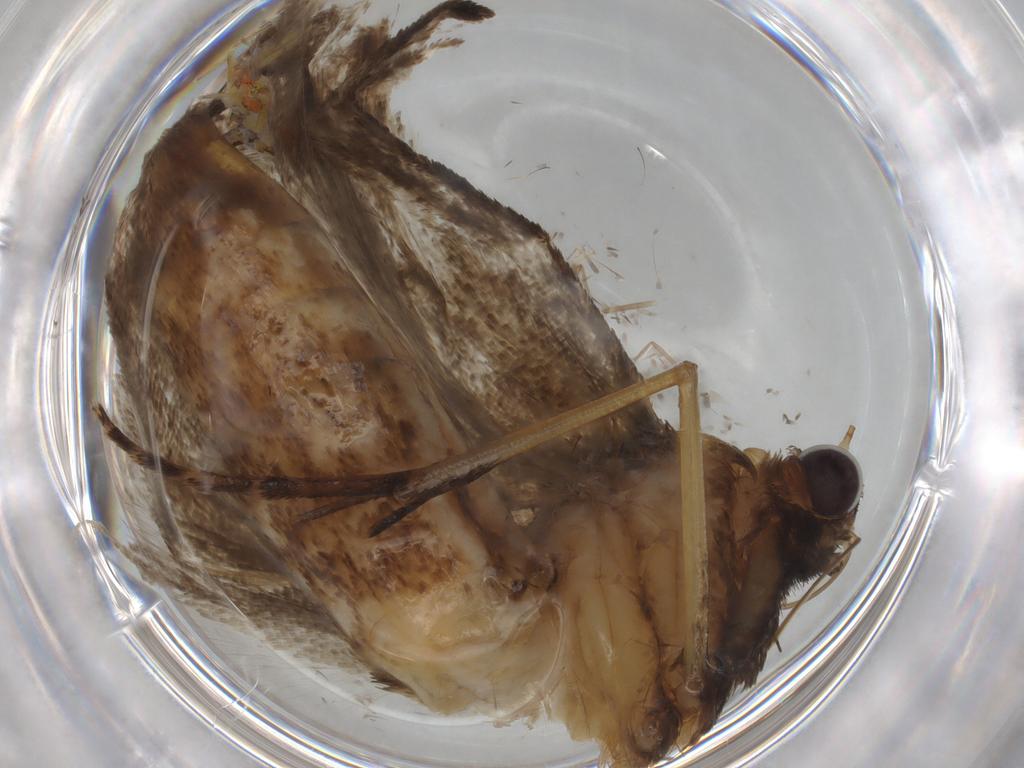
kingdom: Animalia
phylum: Arthropoda
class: Insecta
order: Lepidoptera
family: Erebidae
